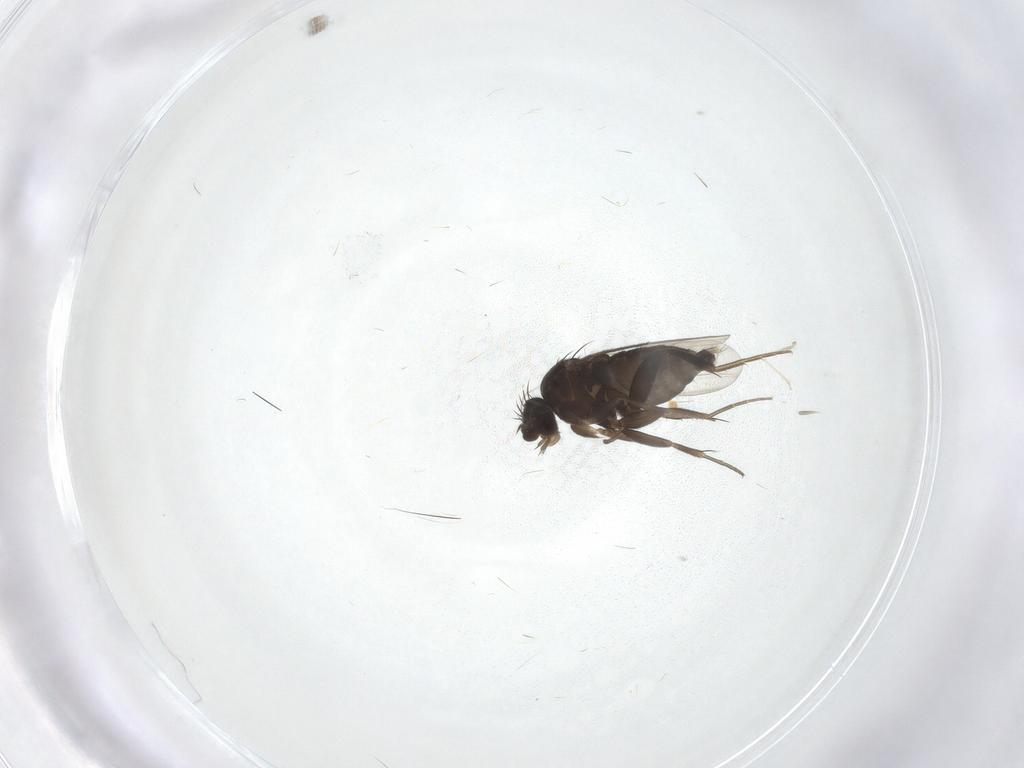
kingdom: Animalia
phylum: Arthropoda
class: Insecta
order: Diptera
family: Phoridae
